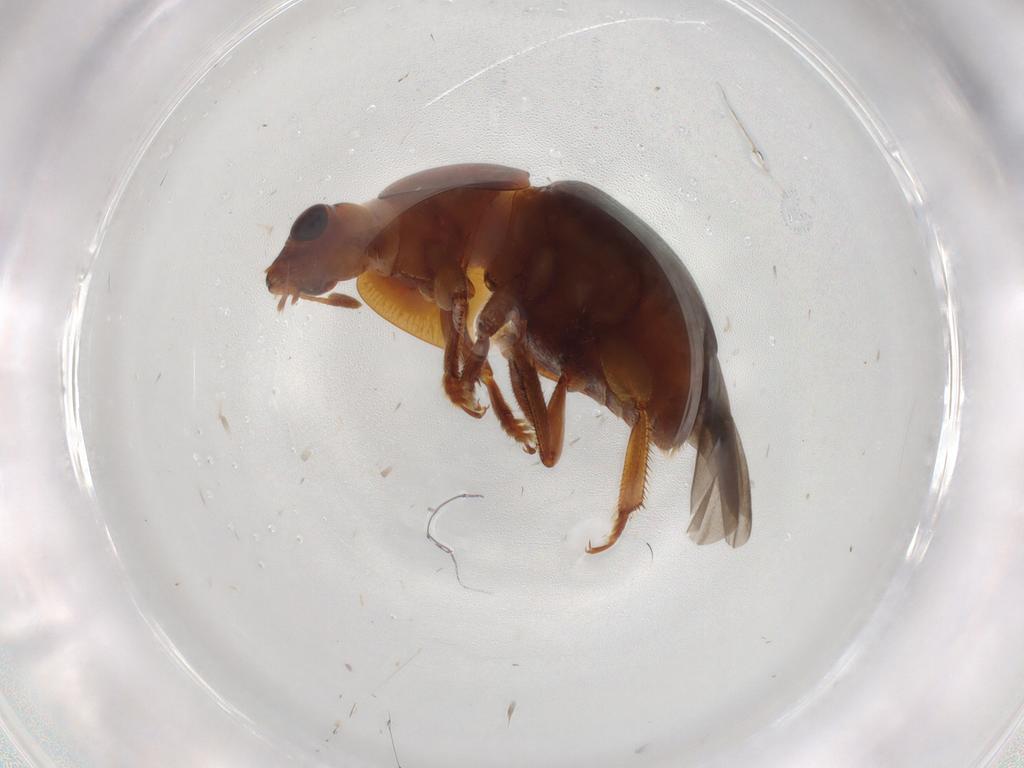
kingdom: Animalia
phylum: Arthropoda
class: Insecta
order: Coleoptera
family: Nitidulidae
